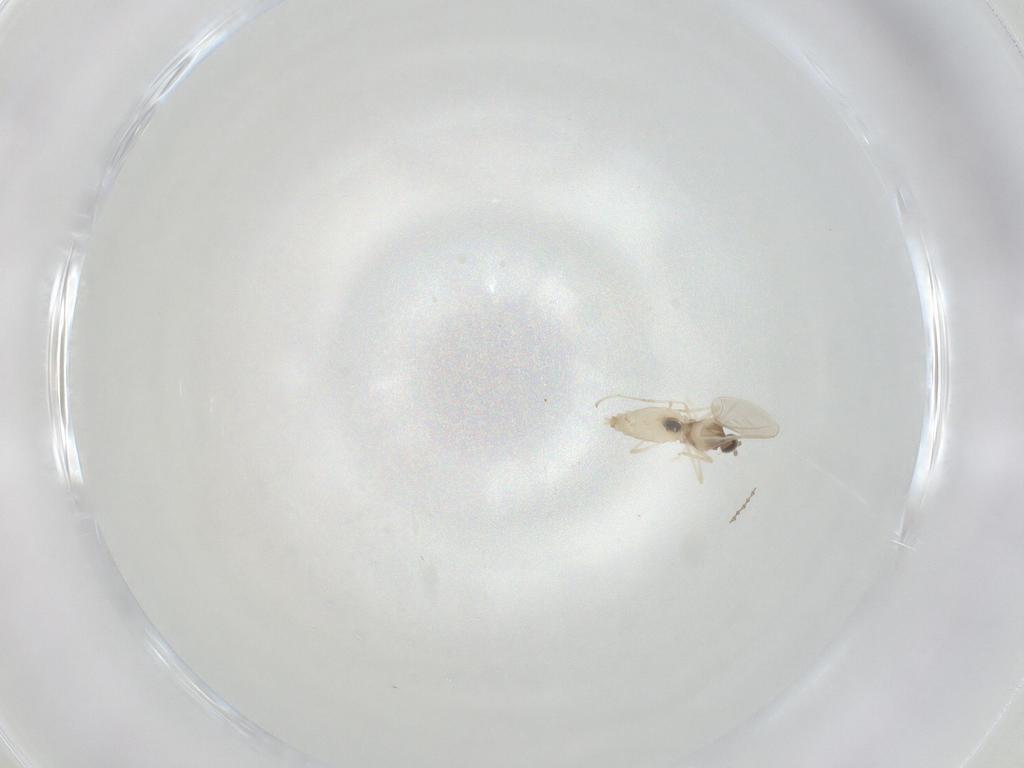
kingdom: Animalia
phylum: Arthropoda
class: Insecta
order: Diptera
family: Cecidomyiidae
